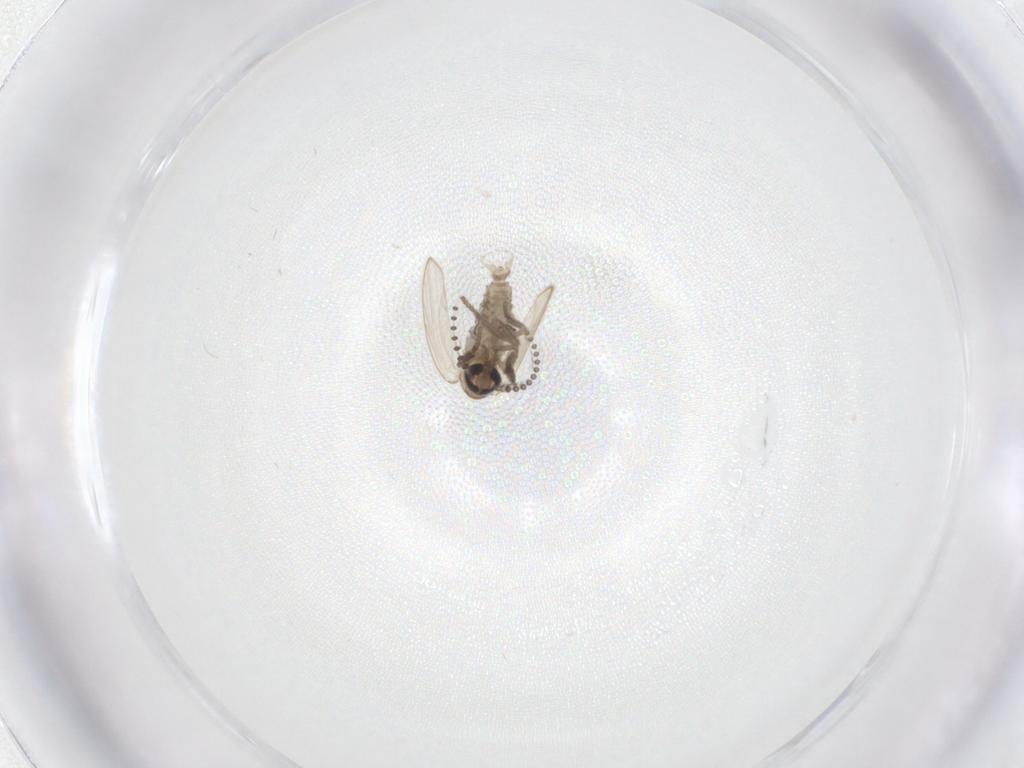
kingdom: Animalia
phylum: Arthropoda
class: Insecta
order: Diptera
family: Psychodidae
